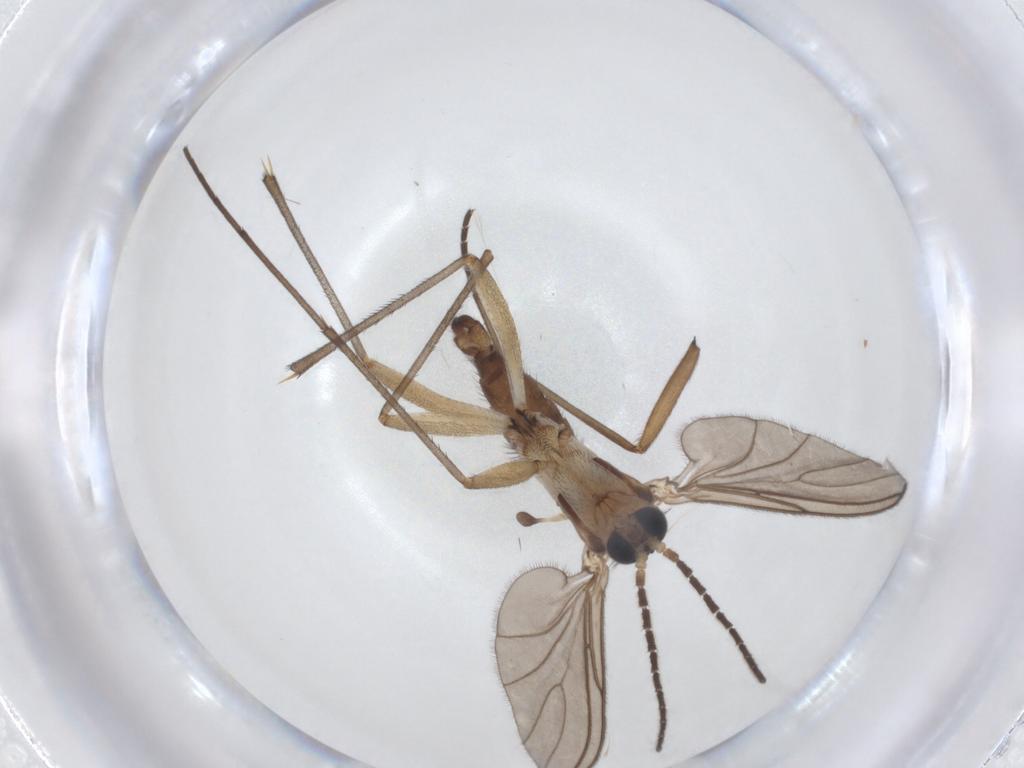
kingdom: Animalia
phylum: Arthropoda
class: Insecta
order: Diptera
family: Sciaridae
